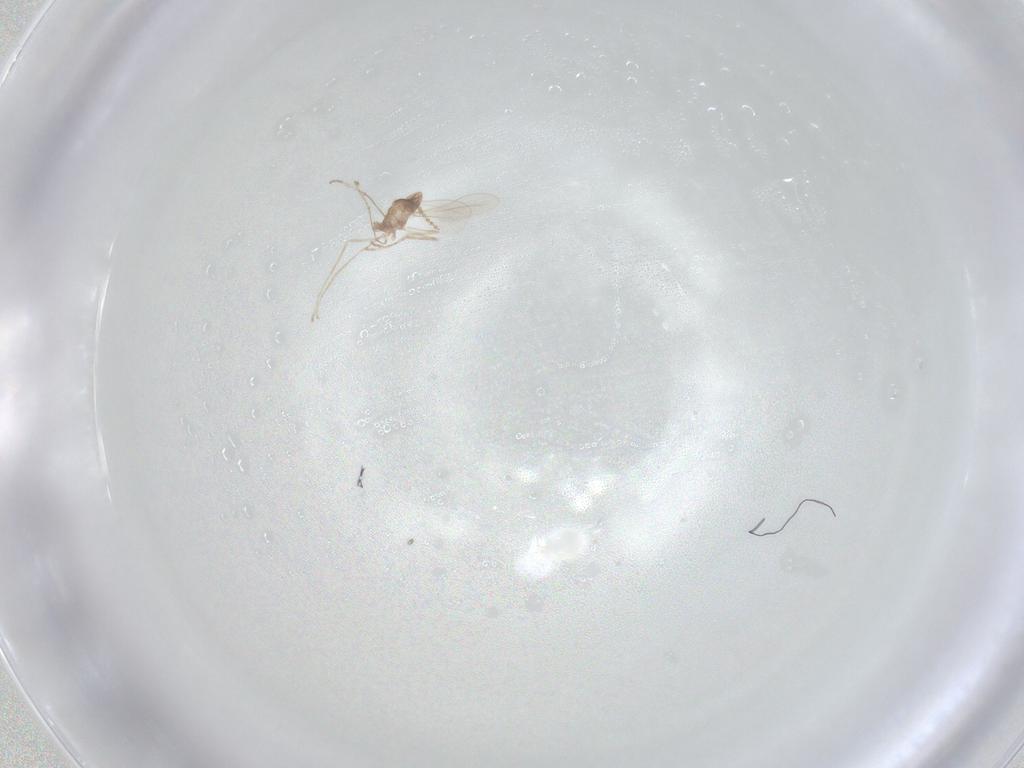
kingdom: Animalia
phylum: Arthropoda
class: Insecta
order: Diptera
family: Cecidomyiidae
